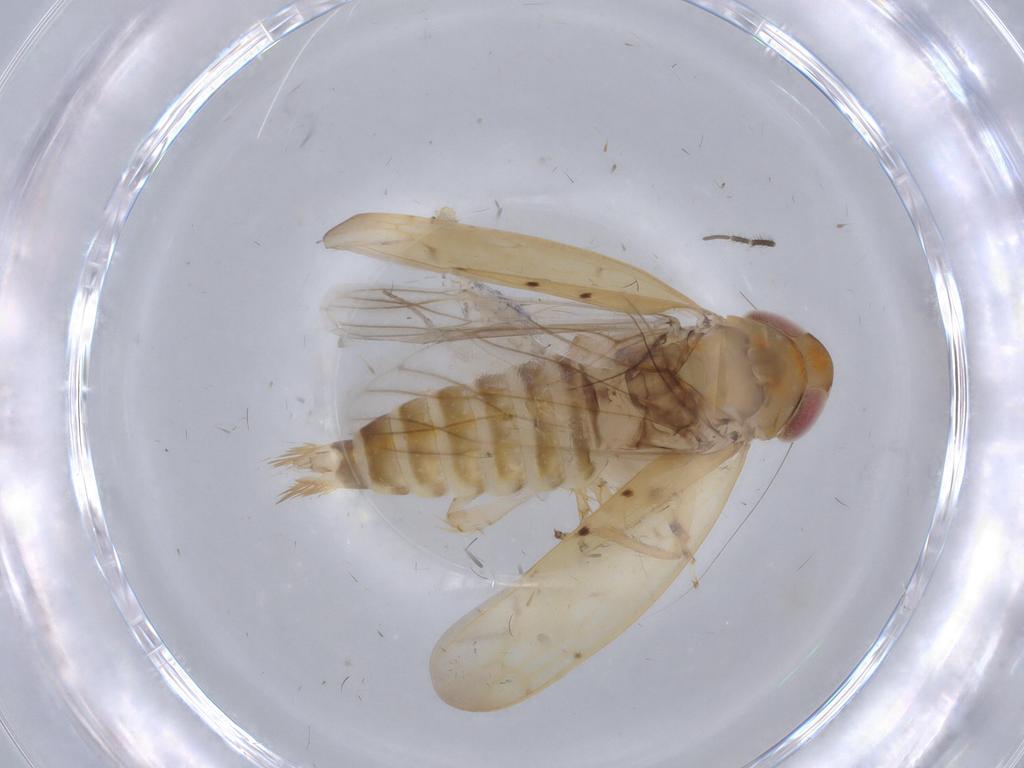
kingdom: Animalia
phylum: Arthropoda
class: Insecta
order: Hemiptera
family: Cicadellidae
